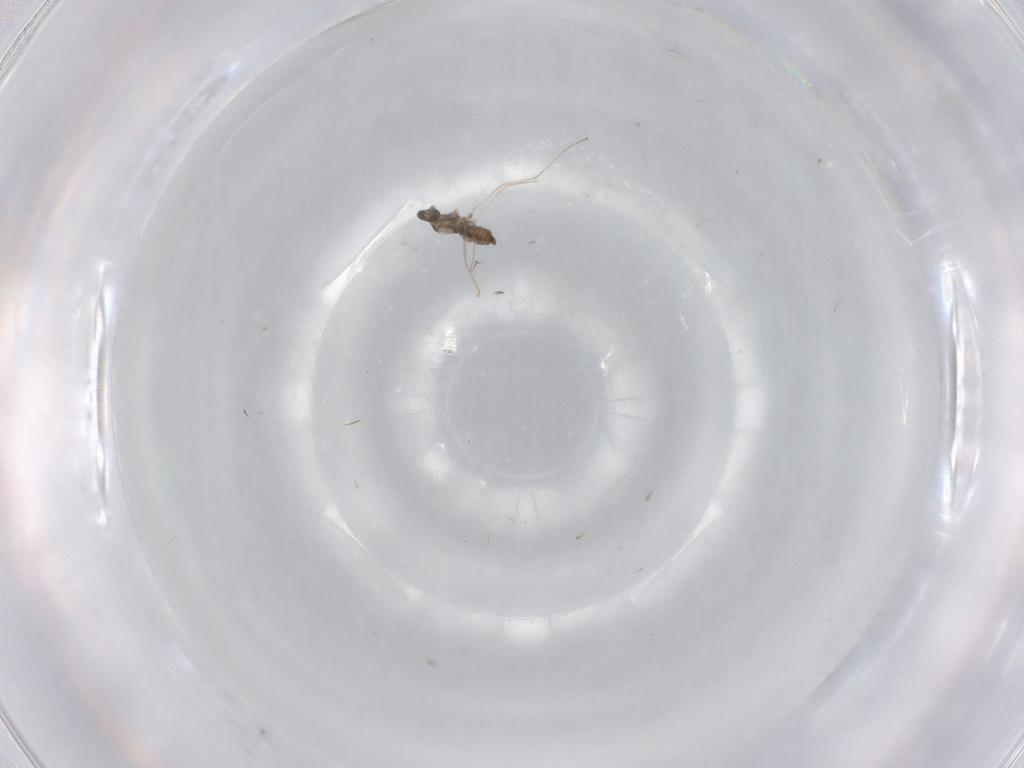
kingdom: Animalia
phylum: Arthropoda
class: Insecta
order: Diptera
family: Cecidomyiidae
